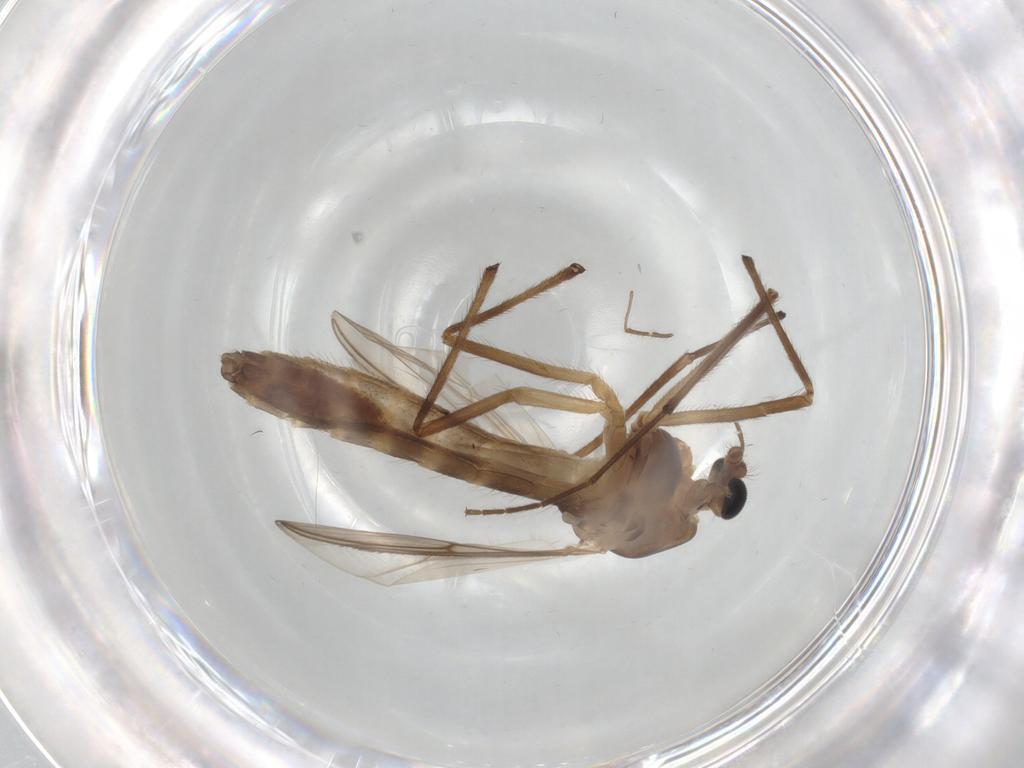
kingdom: Animalia
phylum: Arthropoda
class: Insecta
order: Diptera
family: Chironomidae
